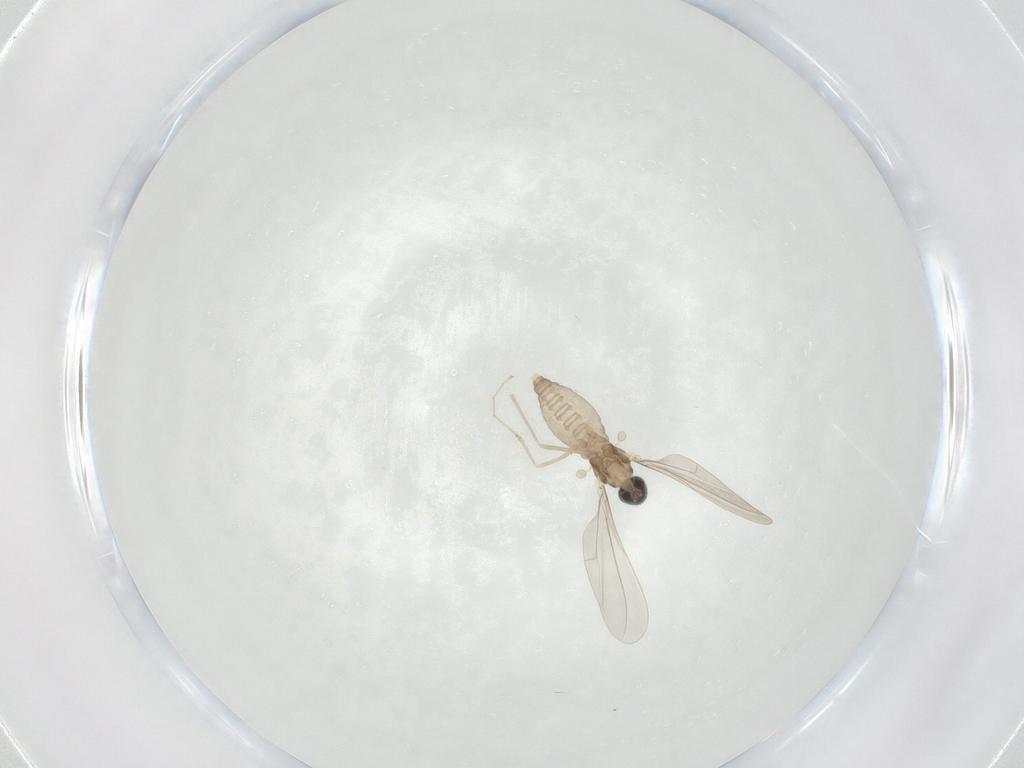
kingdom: Animalia
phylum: Arthropoda
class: Insecta
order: Diptera
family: Cecidomyiidae
